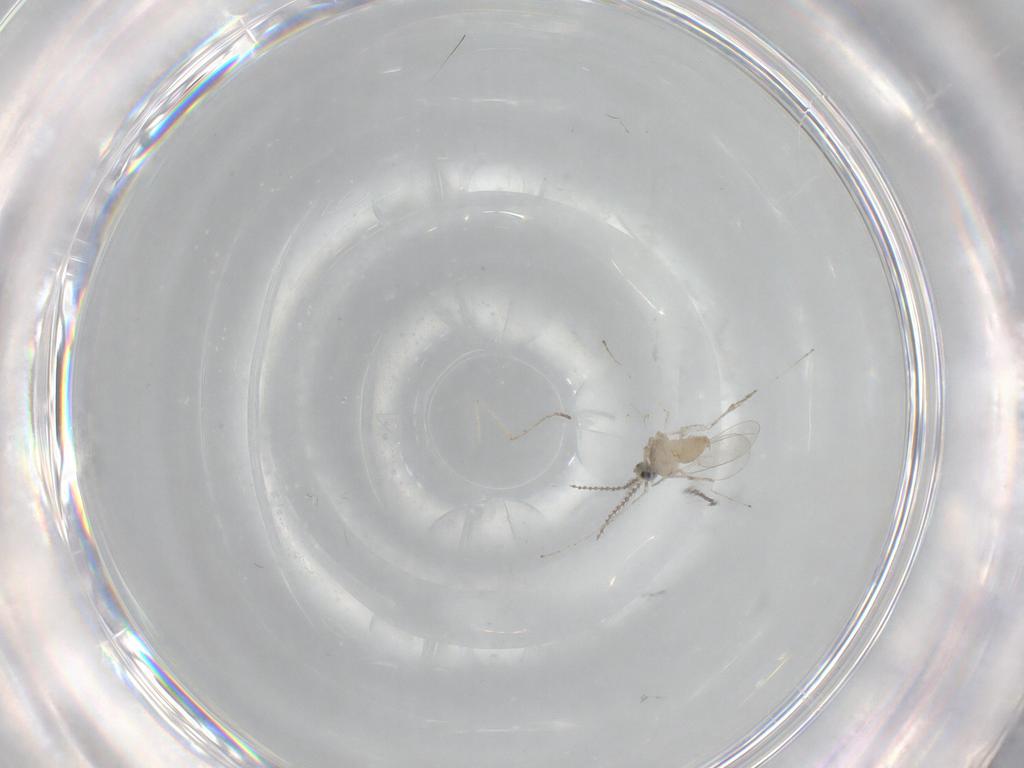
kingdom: Animalia
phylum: Arthropoda
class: Insecta
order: Diptera
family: Cecidomyiidae
